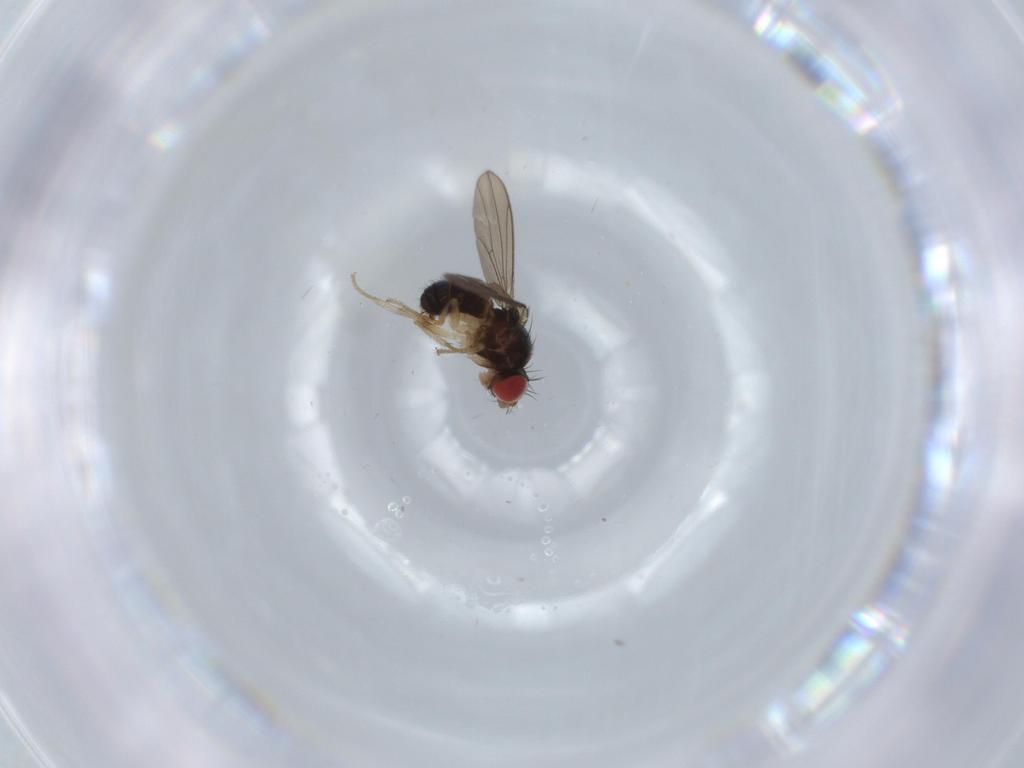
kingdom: Animalia
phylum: Arthropoda
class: Insecta
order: Diptera
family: Drosophilidae
